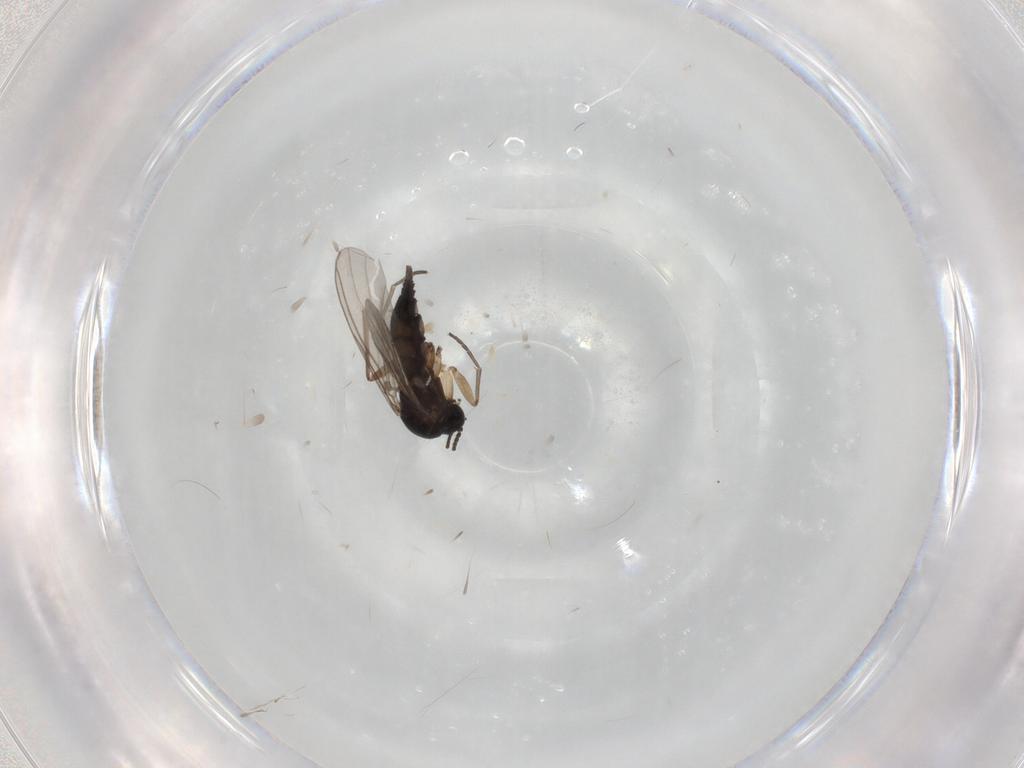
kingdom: Animalia
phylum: Arthropoda
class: Insecta
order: Diptera
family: Sciaridae
